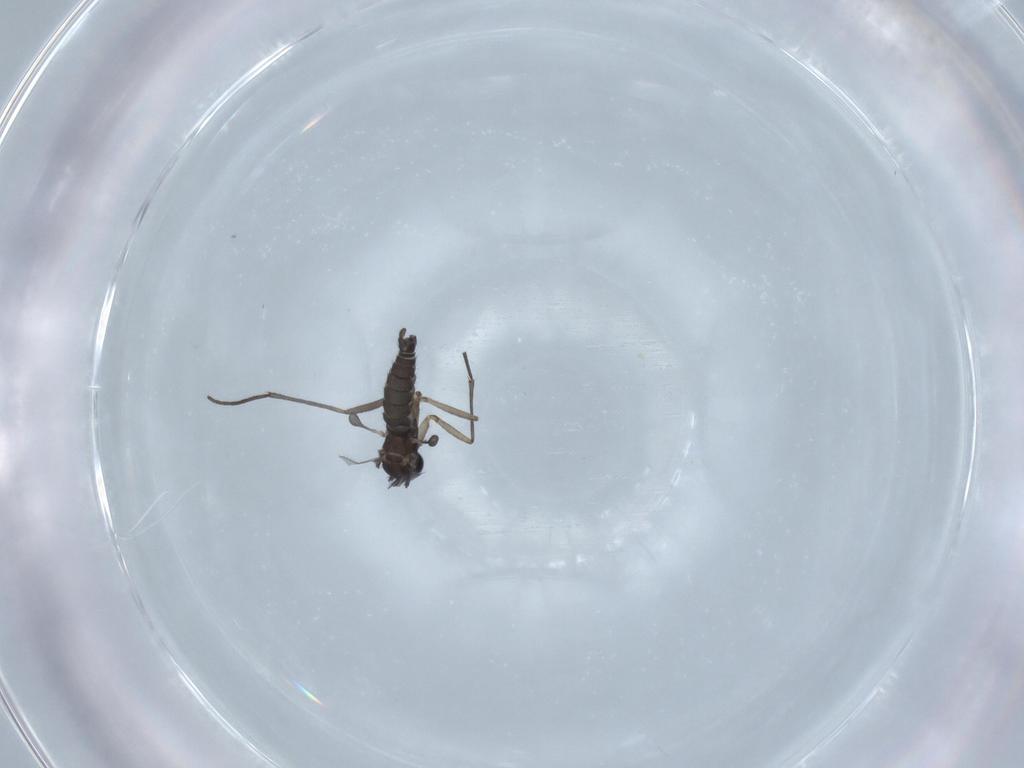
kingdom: Animalia
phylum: Arthropoda
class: Insecta
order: Diptera
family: Sciaridae
